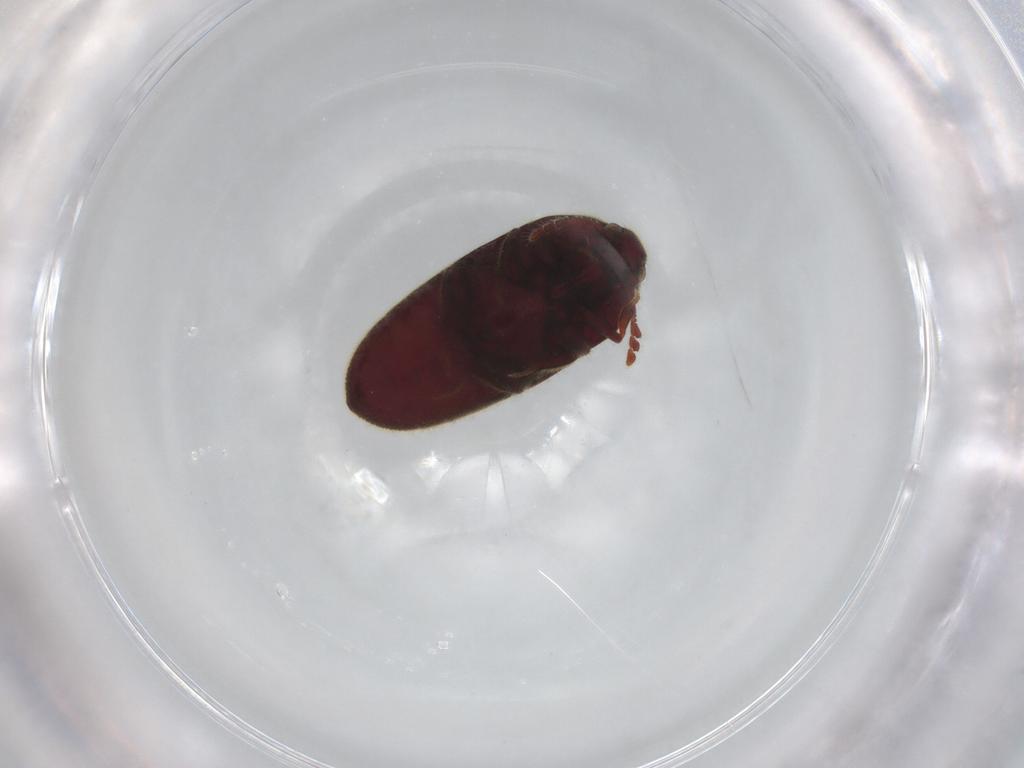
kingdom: Animalia
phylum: Arthropoda
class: Insecta
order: Coleoptera
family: Throscidae
